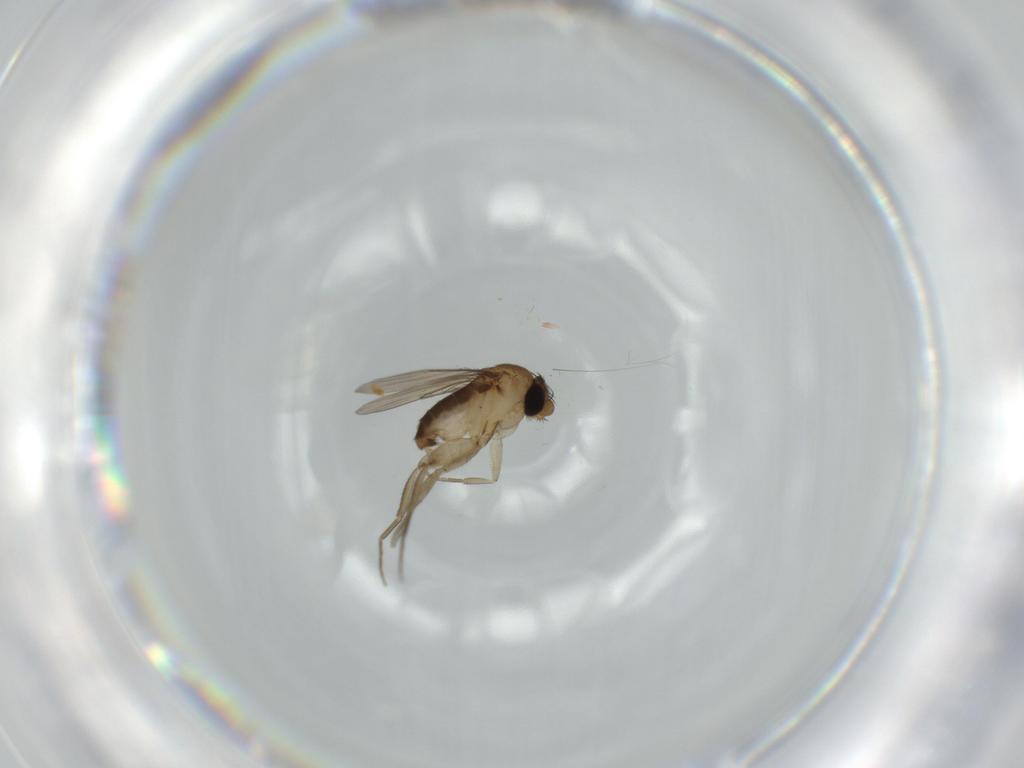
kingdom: Animalia
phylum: Arthropoda
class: Insecta
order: Diptera
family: Phoridae
